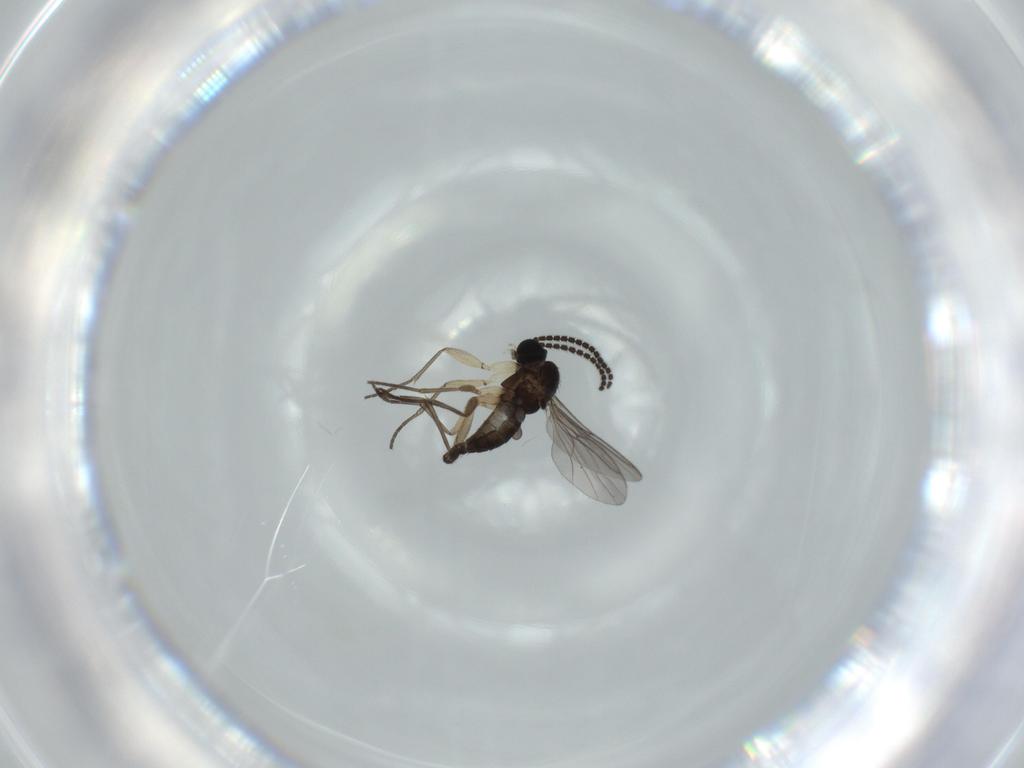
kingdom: Animalia
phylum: Arthropoda
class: Insecta
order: Diptera
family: Sciaridae
